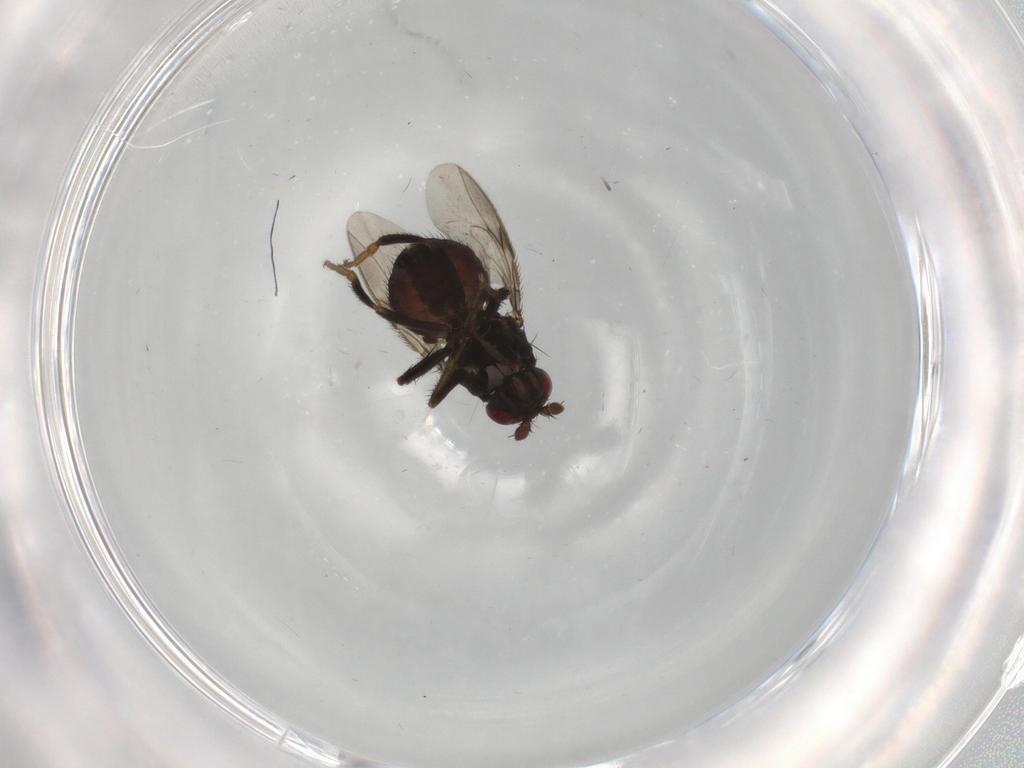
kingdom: Animalia
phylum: Arthropoda
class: Insecta
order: Diptera
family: Sphaeroceridae
